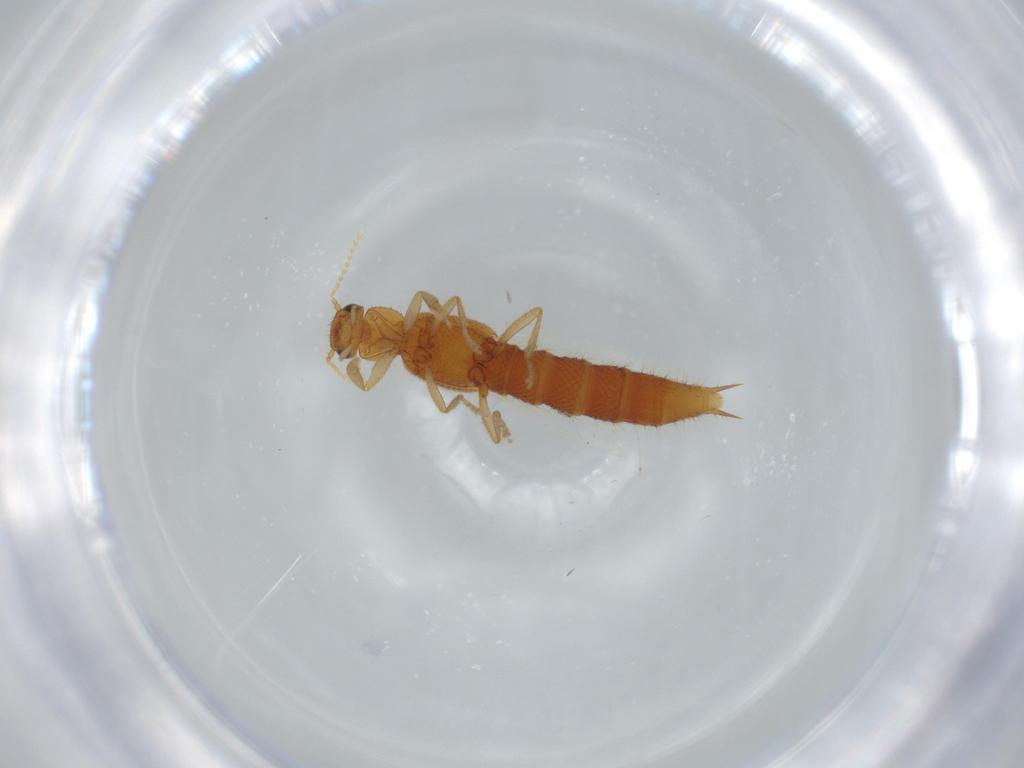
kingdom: Animalia
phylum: Arthropoda
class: Insecta
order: Coleoptera
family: Staphylinidae
